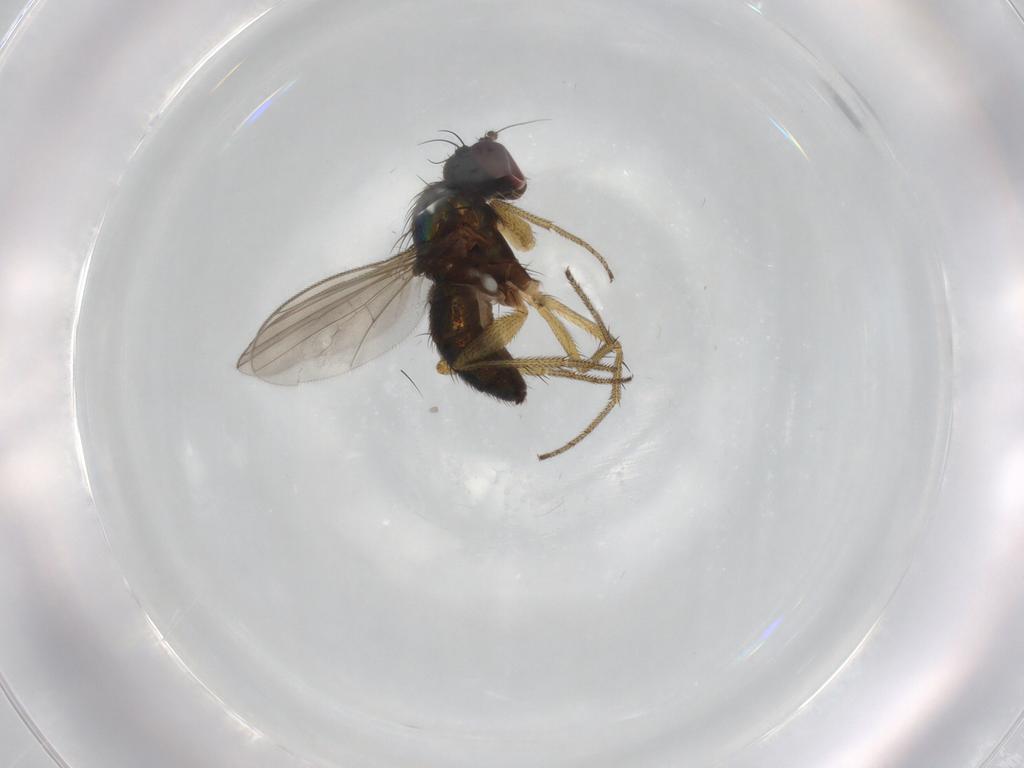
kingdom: Animalia
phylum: Arthropoda
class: Insecta
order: Diptera
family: Dolichopodidae
